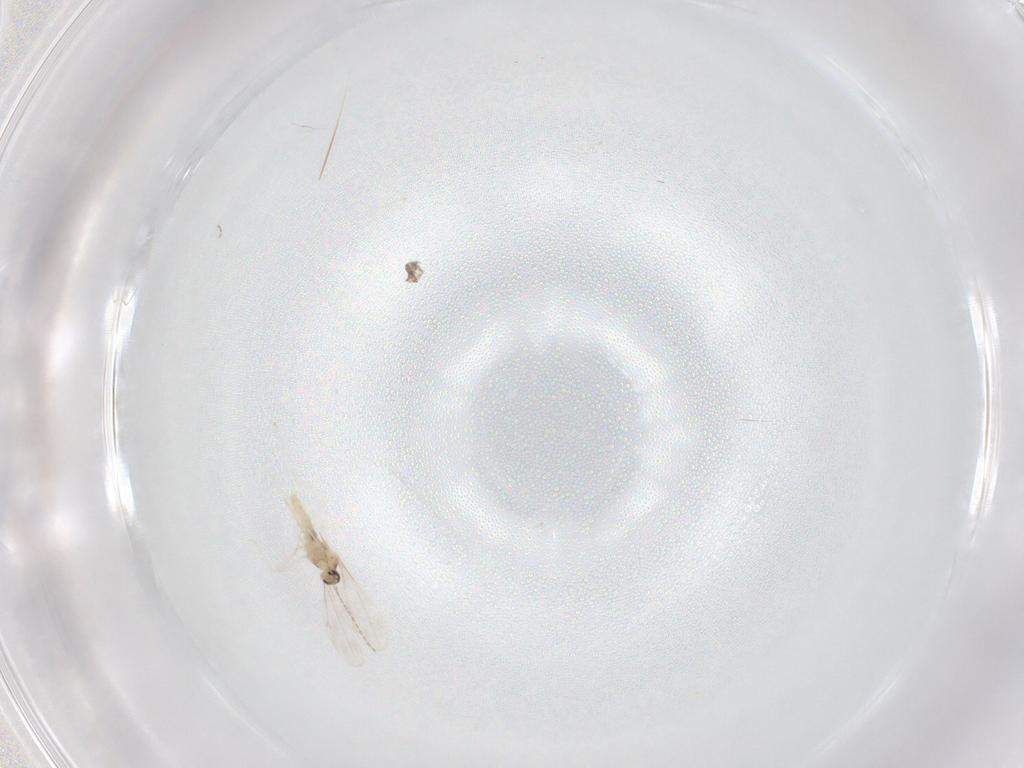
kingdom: Animalia
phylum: Arthropoda
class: Insecta
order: Diptera
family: Cecidomyiidae
